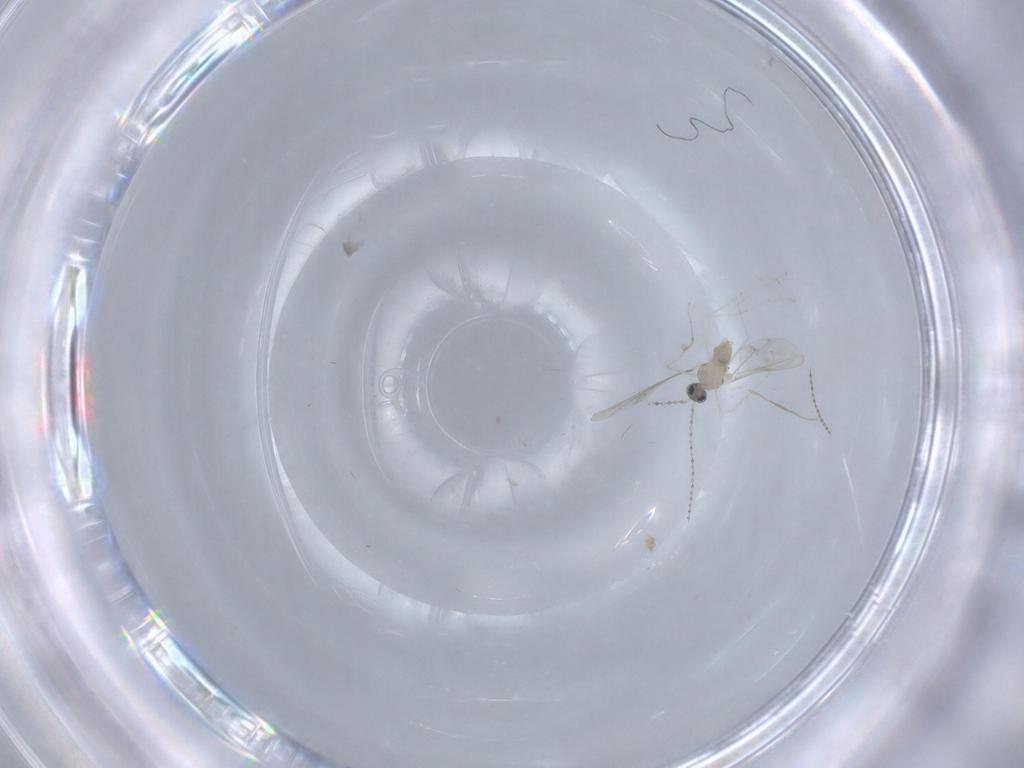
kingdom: Animalia
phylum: Arthropoda
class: Insecta
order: Diptera
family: Cecidomyiidae
